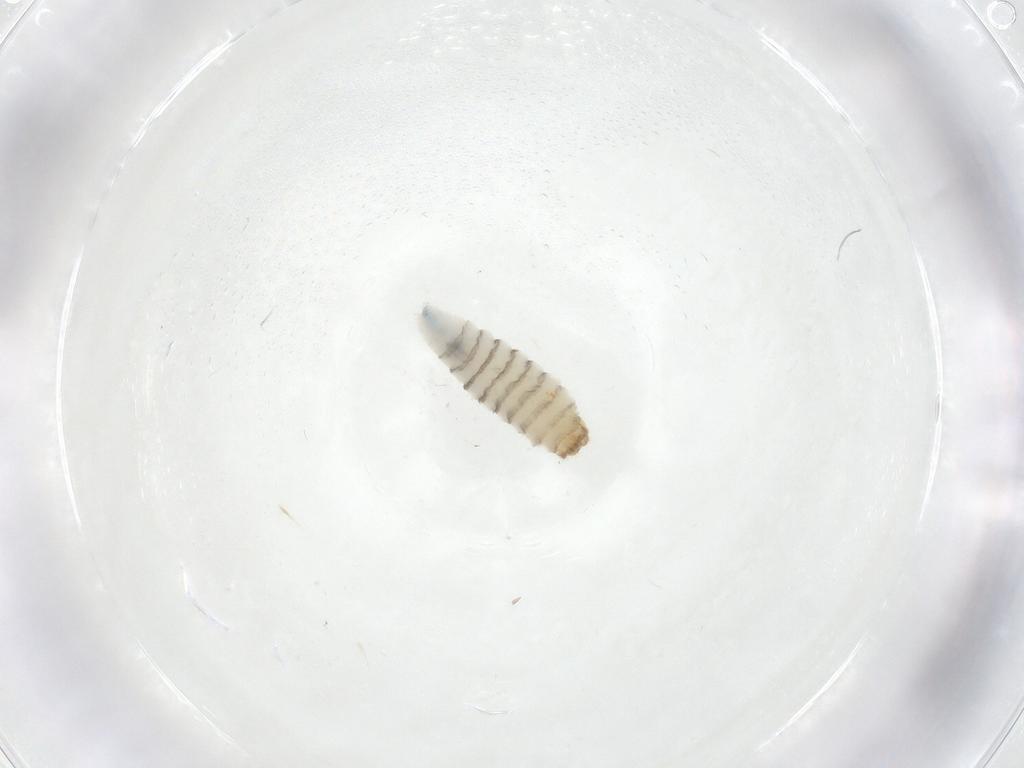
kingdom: Animalia
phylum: Arthropoda
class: Insecta
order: Diptera
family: Sarcophagidae
